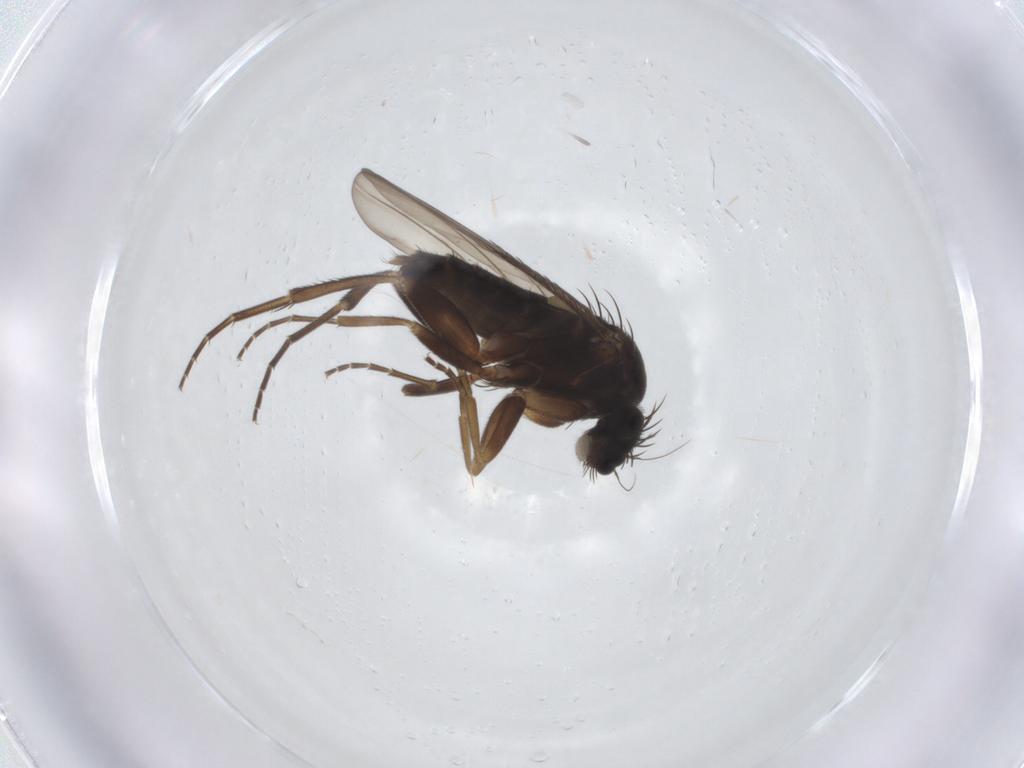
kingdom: Animalia
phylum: Arthropoda
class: Insecta
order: Diptera
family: Phoridae
